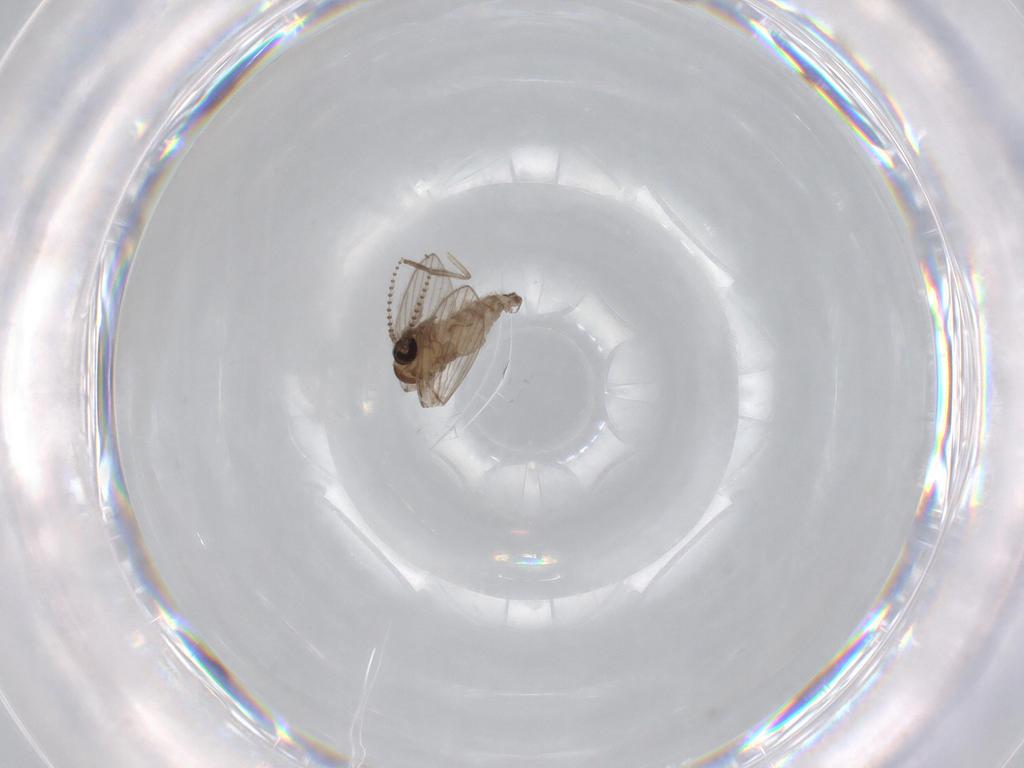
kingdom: Animalia
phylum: Arthropoda
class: Insecta
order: Diptera
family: Psychodidae
